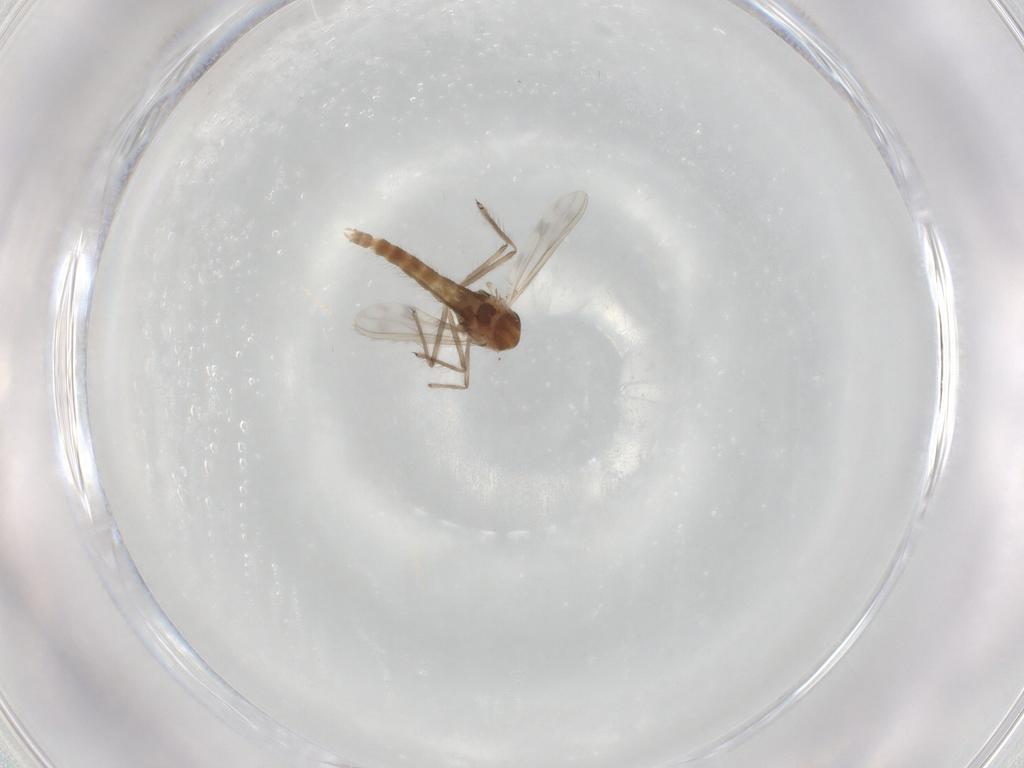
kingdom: Animalia
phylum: Arthropoda
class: Insecta
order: Diptera
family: Chironomidae
